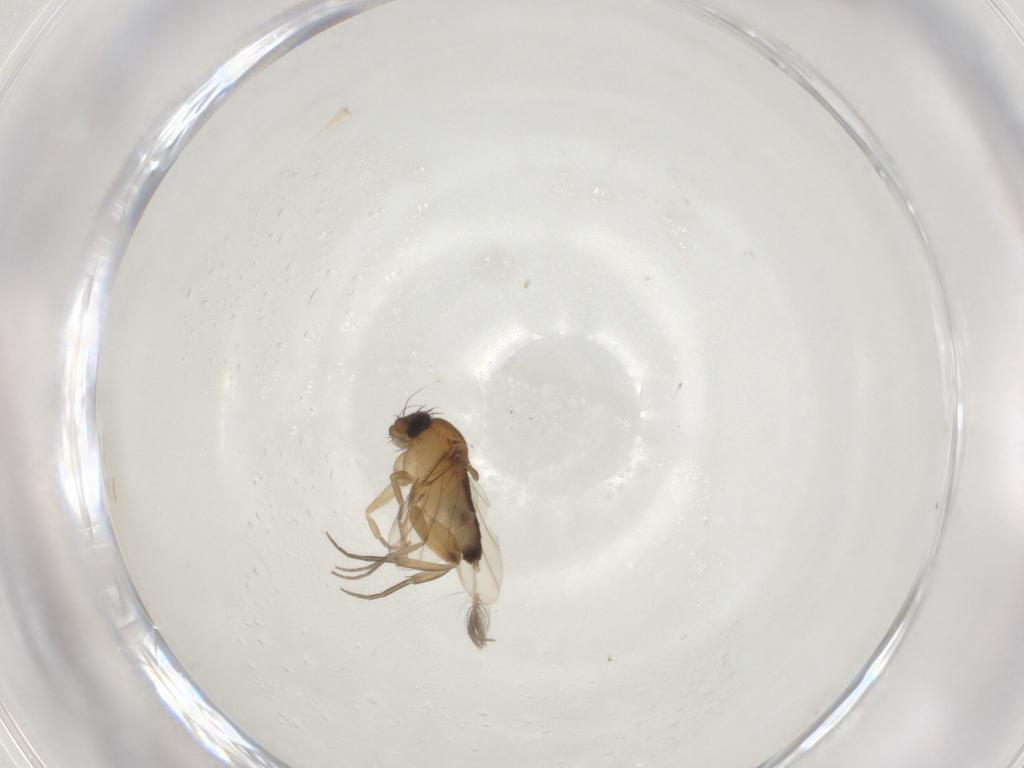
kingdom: Animalia
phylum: Arthropoda
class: Insecta
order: Diptera
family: Phoridae
